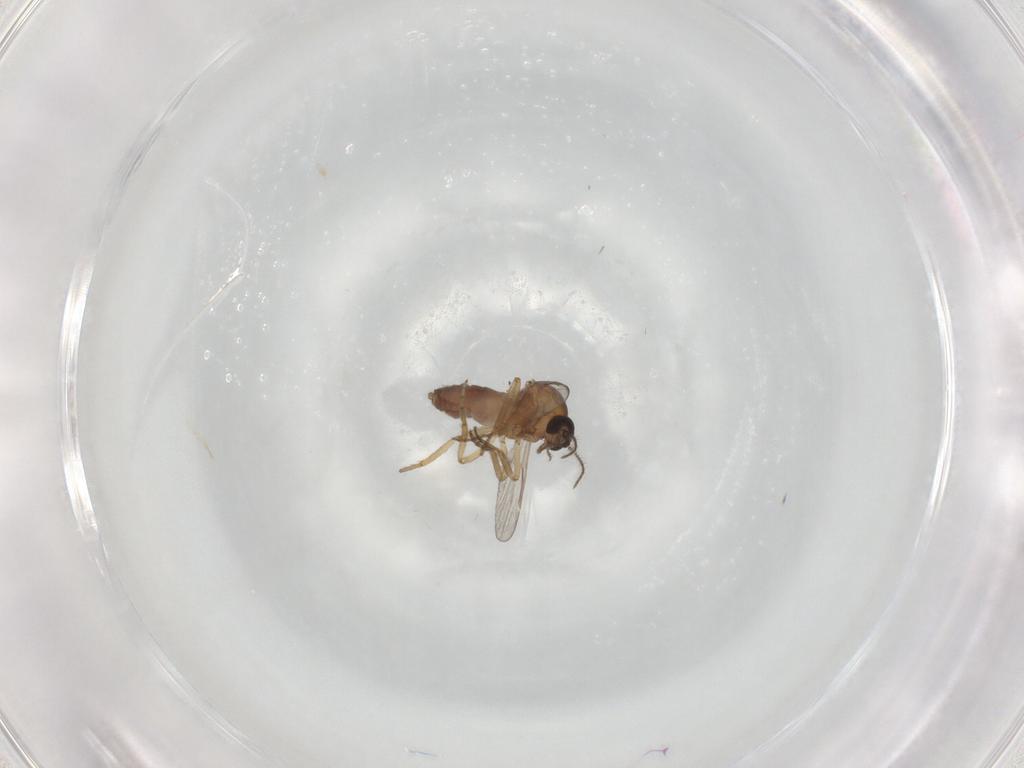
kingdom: Animalia
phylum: Arthropoda
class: Insecta
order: Diptera
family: Ceratopogonidae
